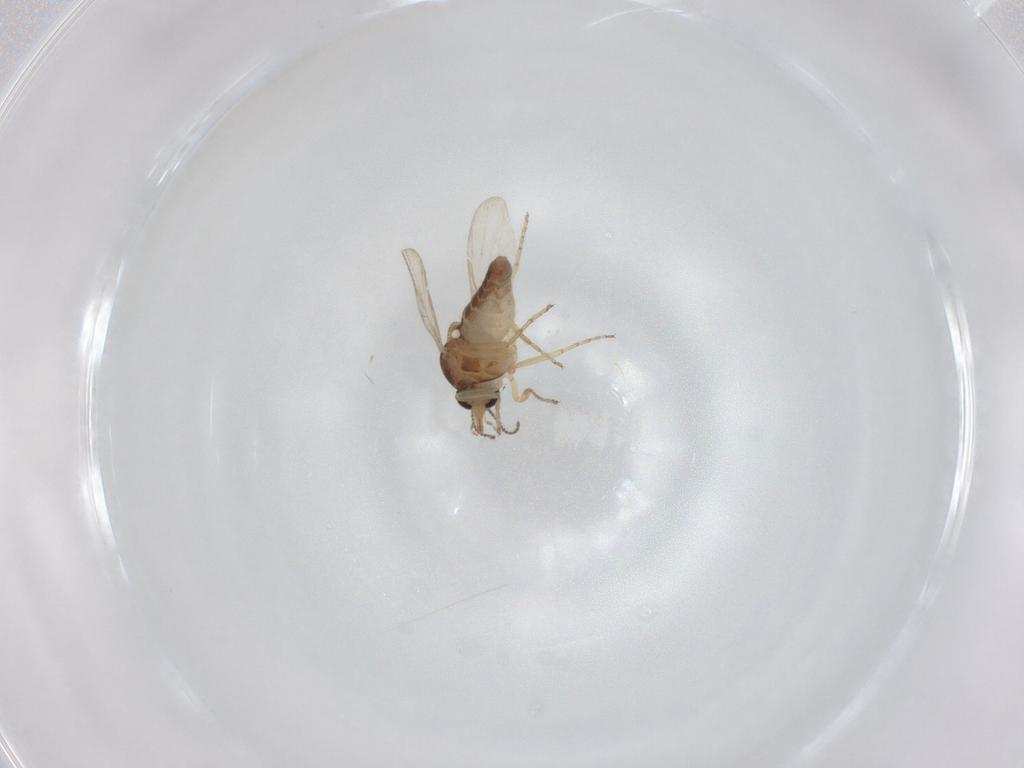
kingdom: Animalia
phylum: Arthropoda
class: Insecta
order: Diptera
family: Ceratopogonidae
